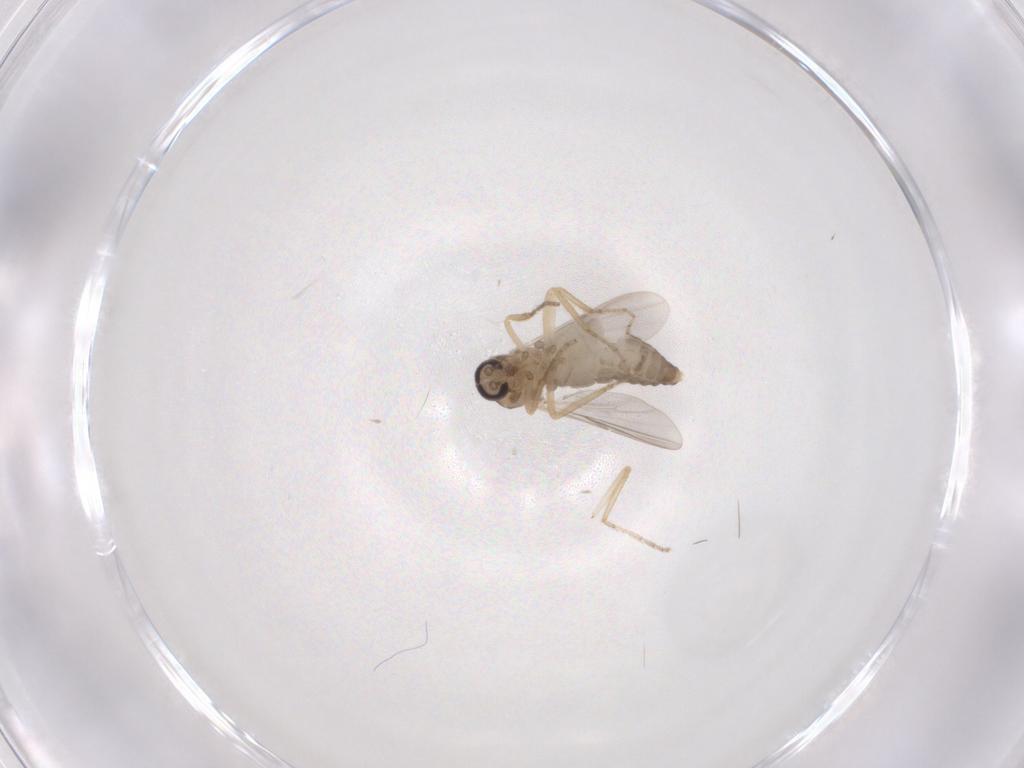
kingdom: Animalia
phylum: Arthropoda
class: Insecta
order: Diptera
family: Ceratopogonidae
